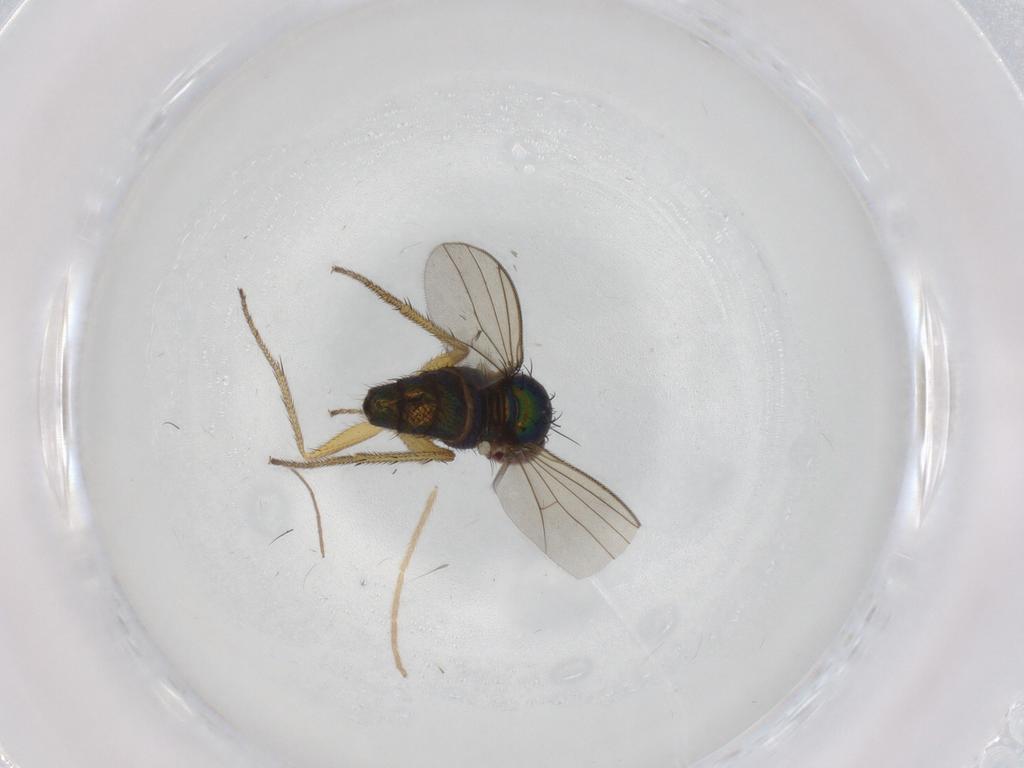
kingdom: Animalia
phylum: Arthropoda
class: Insecta
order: Diptera
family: Dolichopodidae
